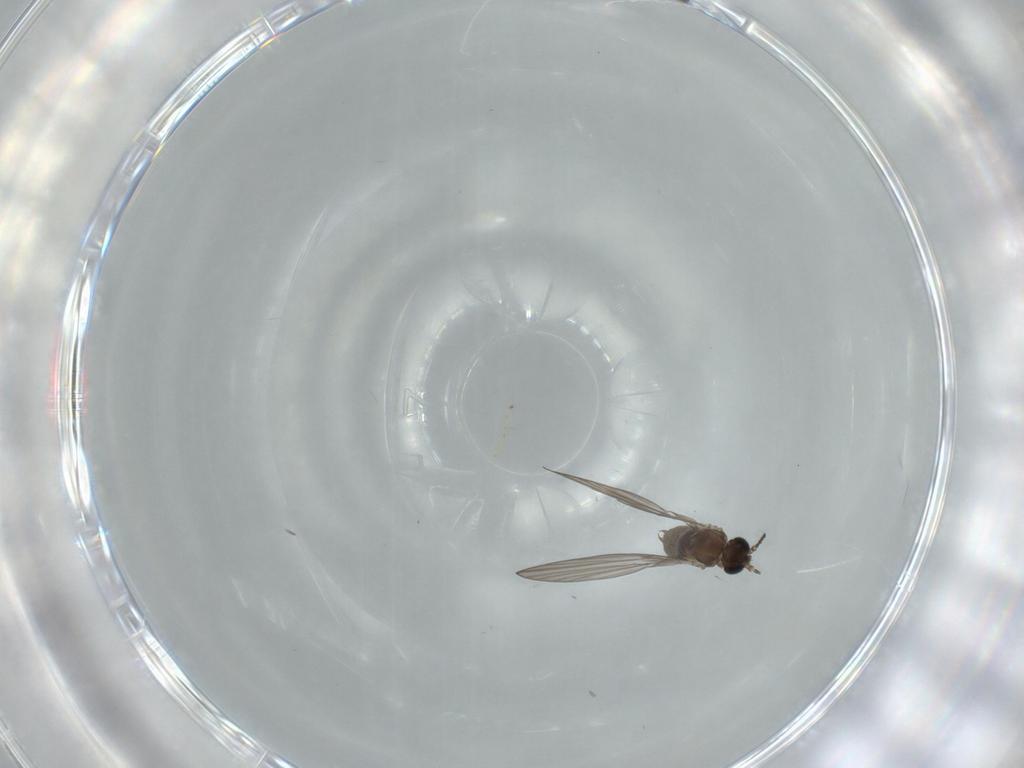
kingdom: Animalia
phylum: Arthropoda
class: Insecta
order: Diptera
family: Psychodidae
